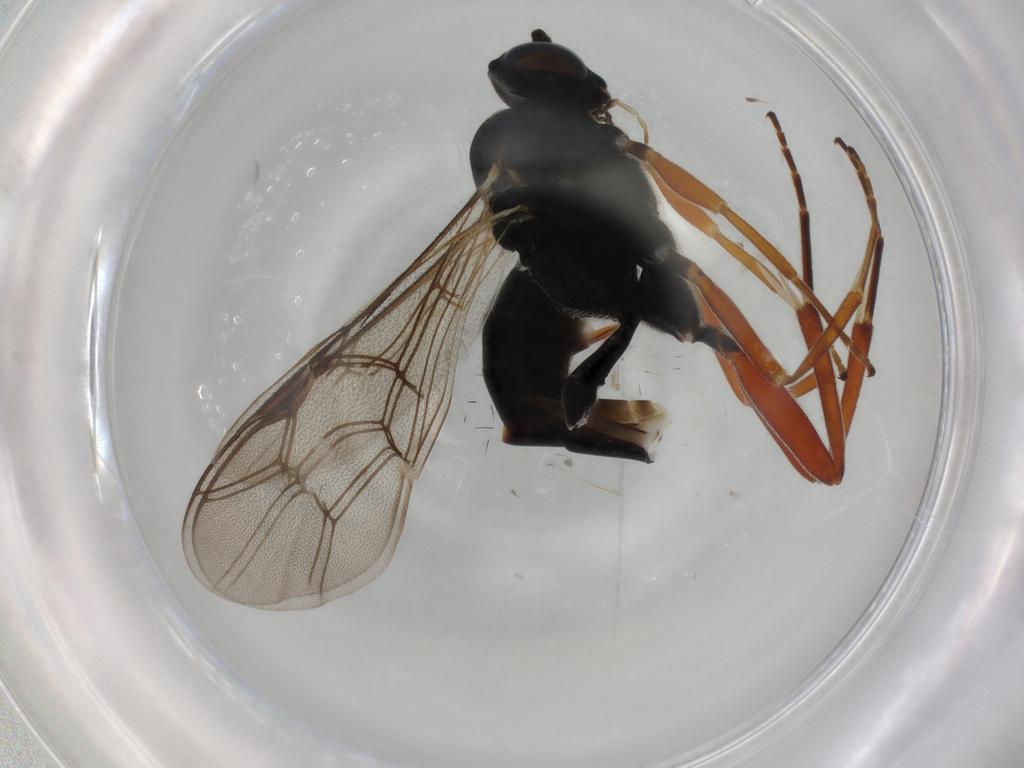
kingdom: Animalia
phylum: Arthropoda
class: Insecta
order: Hymenoptera
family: Ichneumonidae
